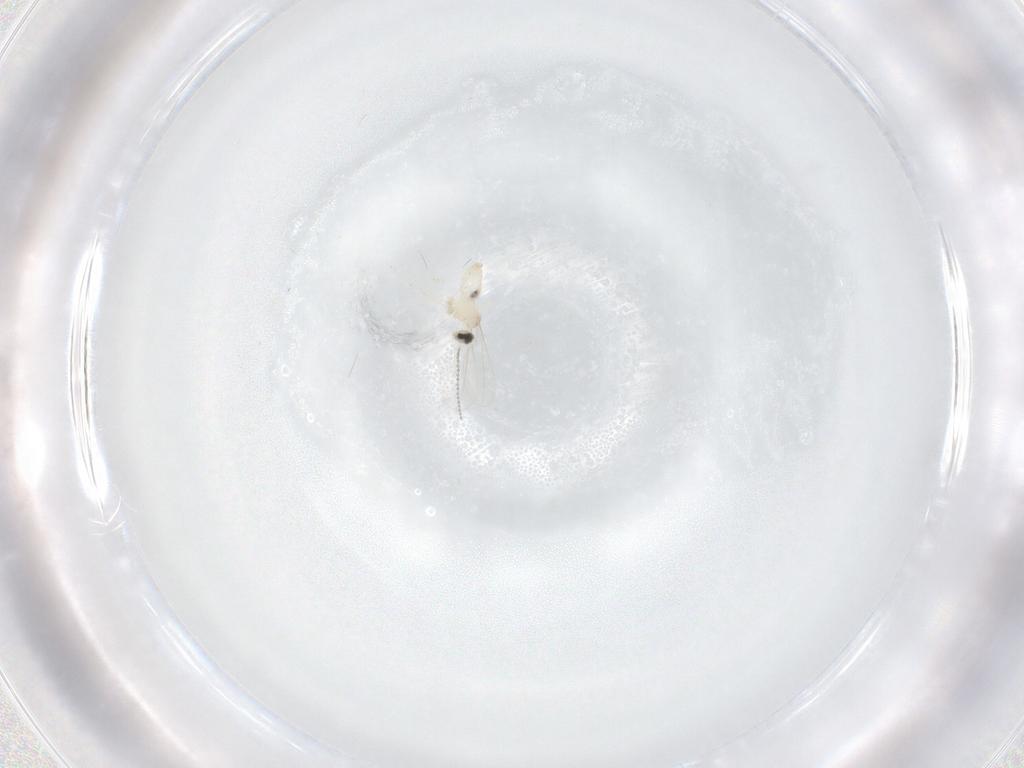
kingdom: Animalia
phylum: Arthropoda
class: Insecta
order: Diptera
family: Cecidomyiidae
